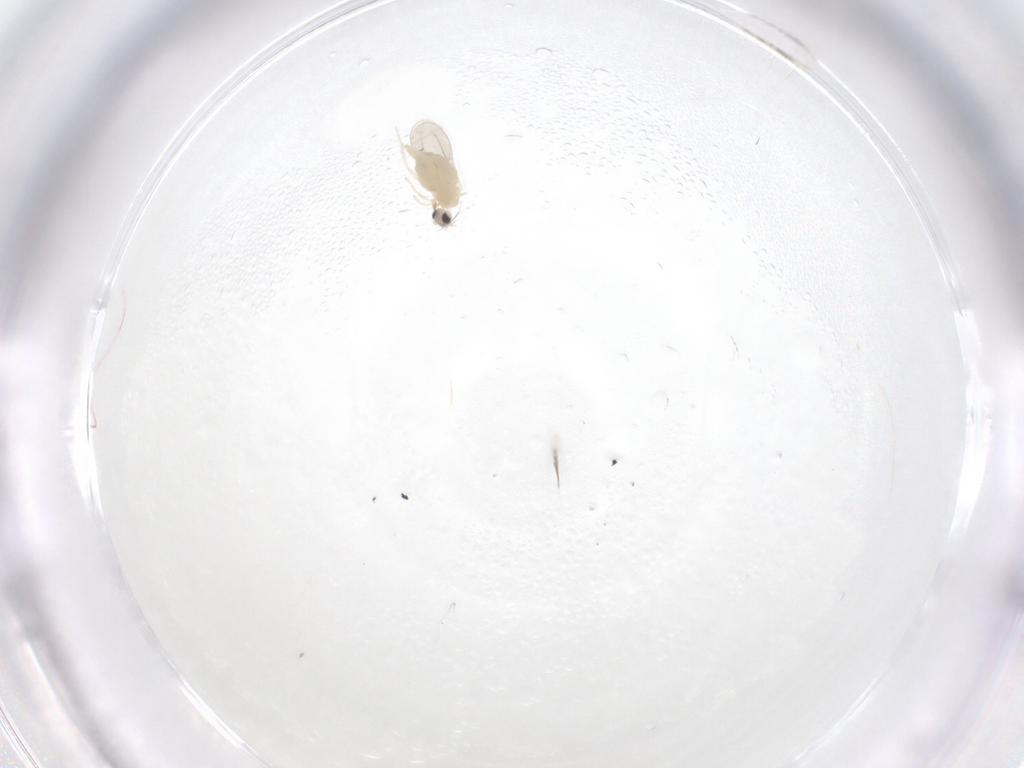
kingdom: Animalia
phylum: Arthropoda
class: Insecta
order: Diptera
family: Cecidomyiidae
